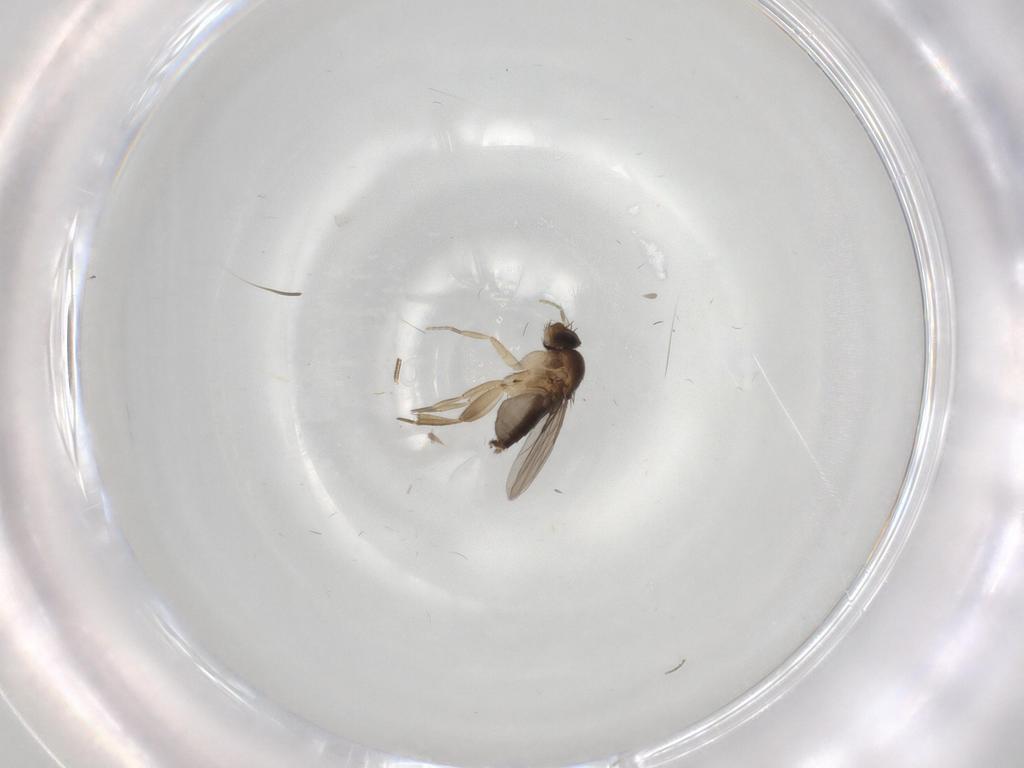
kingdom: Animalia
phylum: Arthropoda
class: Insecta
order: Diptera
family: Phoridae
